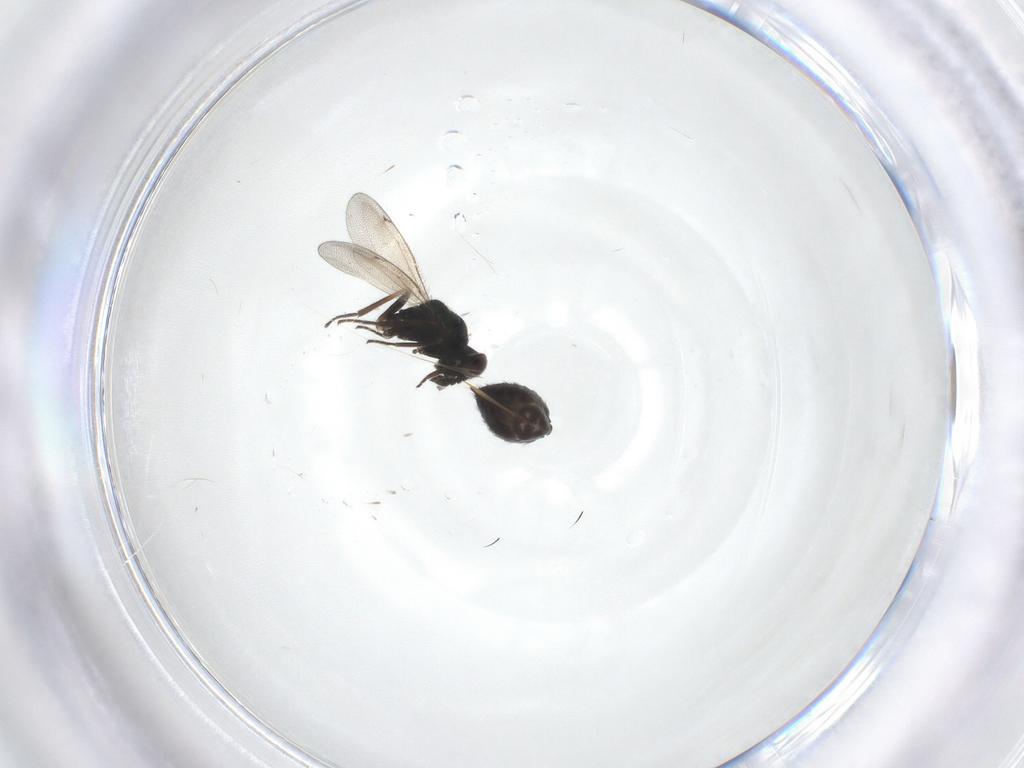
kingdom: Animalia
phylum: Arthropoda
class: Insecta
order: Hymenoptera
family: Eulophidae
